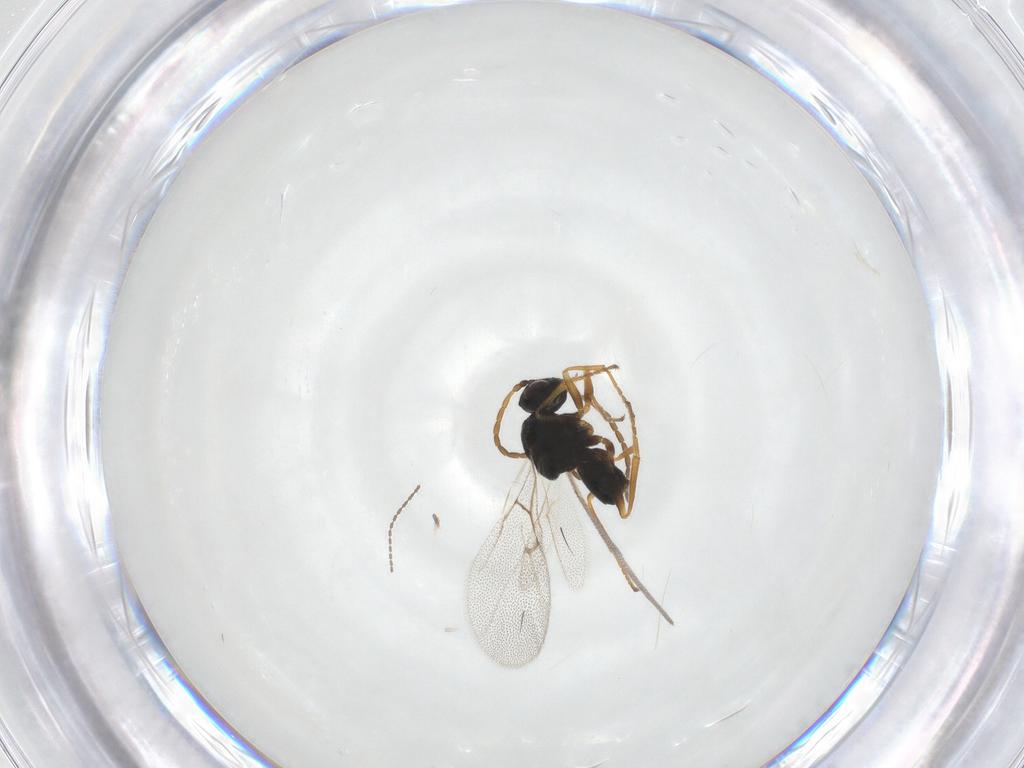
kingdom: Animalia
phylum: Arthropoda
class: Insecta
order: Hymenoptera
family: Cynipidae
